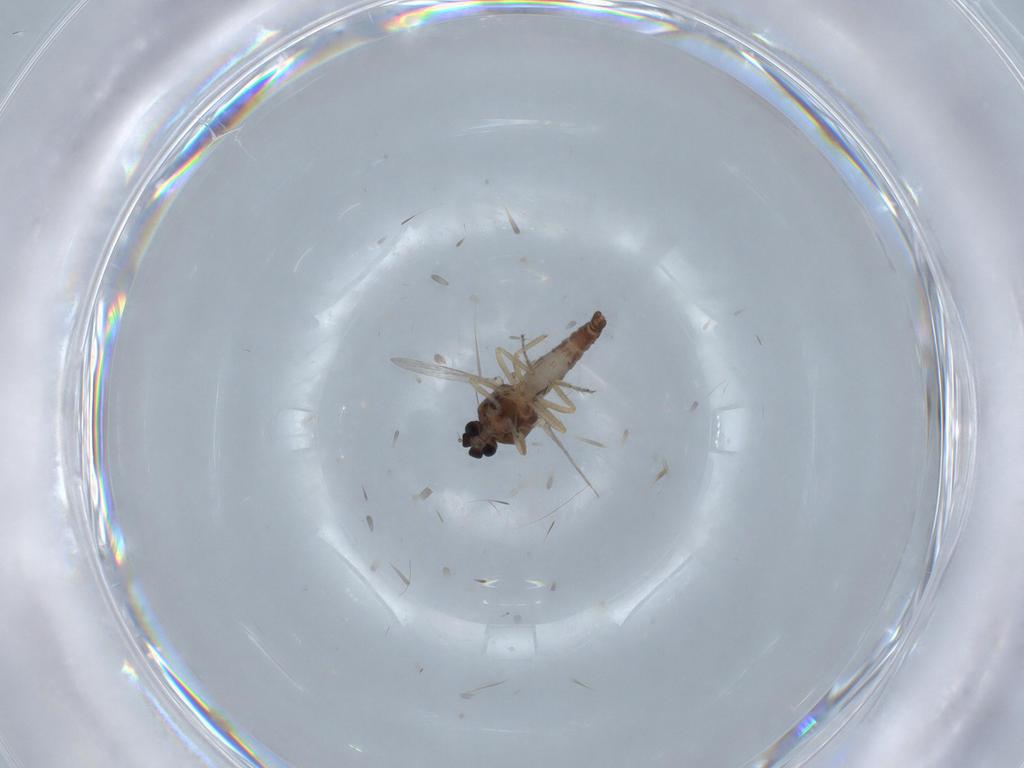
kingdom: Animalia
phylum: Arthropoda
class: Insecta
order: Diptera
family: Ceratopogonidae
